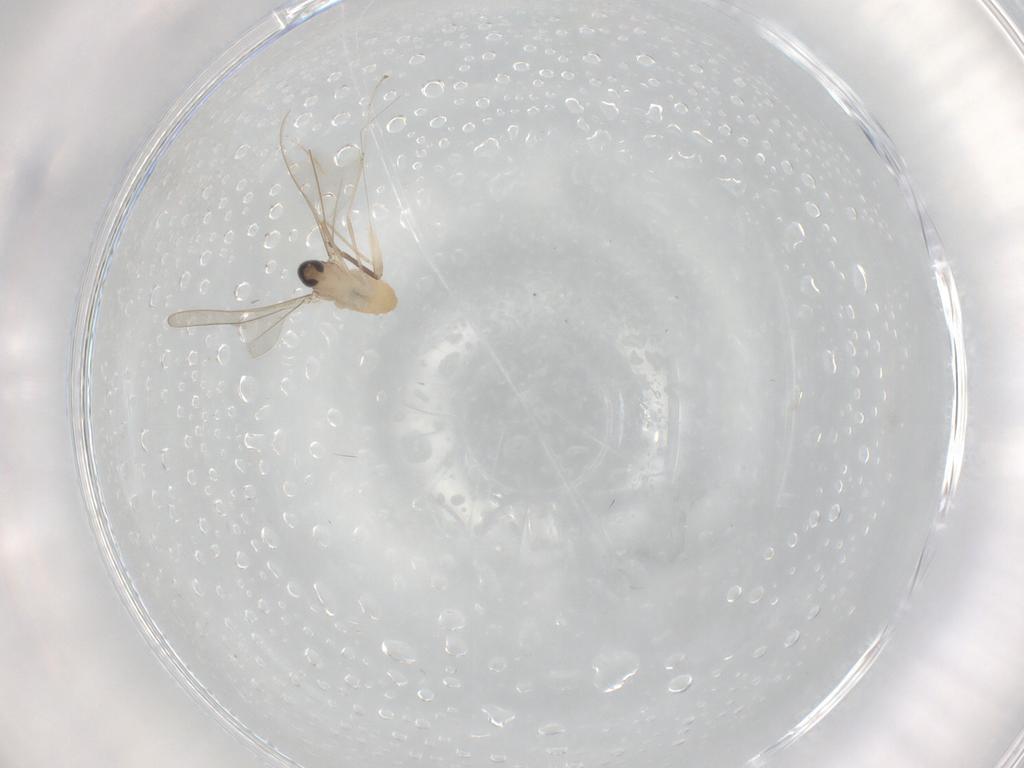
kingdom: Animalia
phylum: Arthropoda
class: Insecta
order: Diptera
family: Cecidomyiidae
